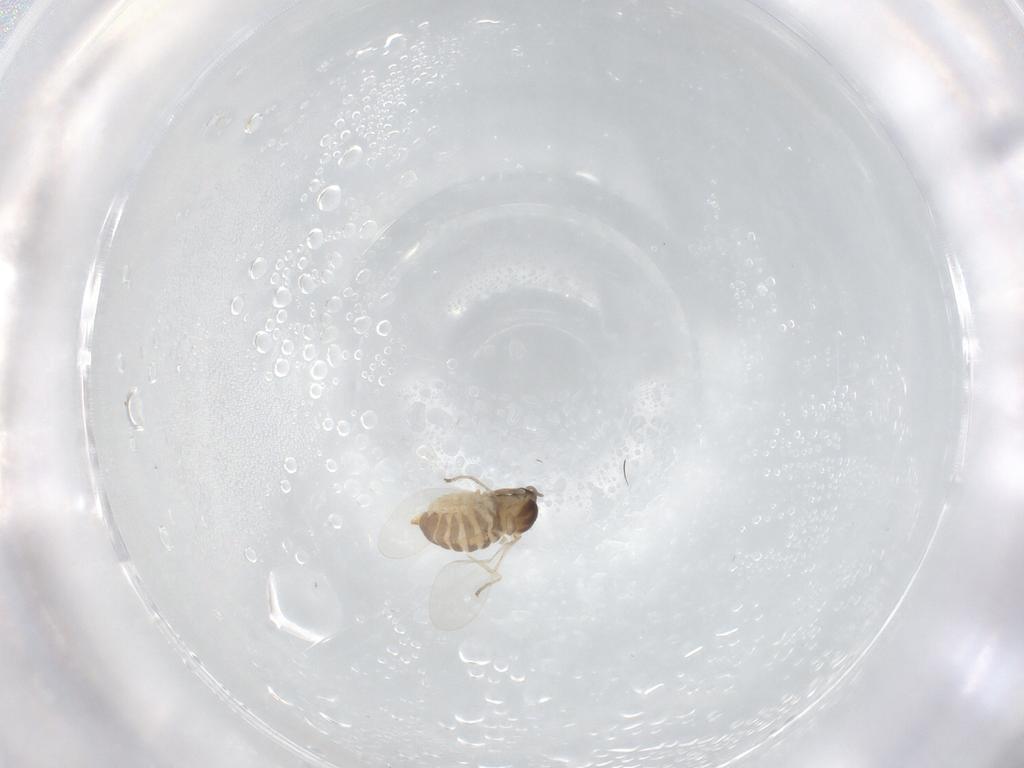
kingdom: Animalia
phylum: Arthropoda
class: Insecta
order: Diptera
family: Cecidomyiidae
